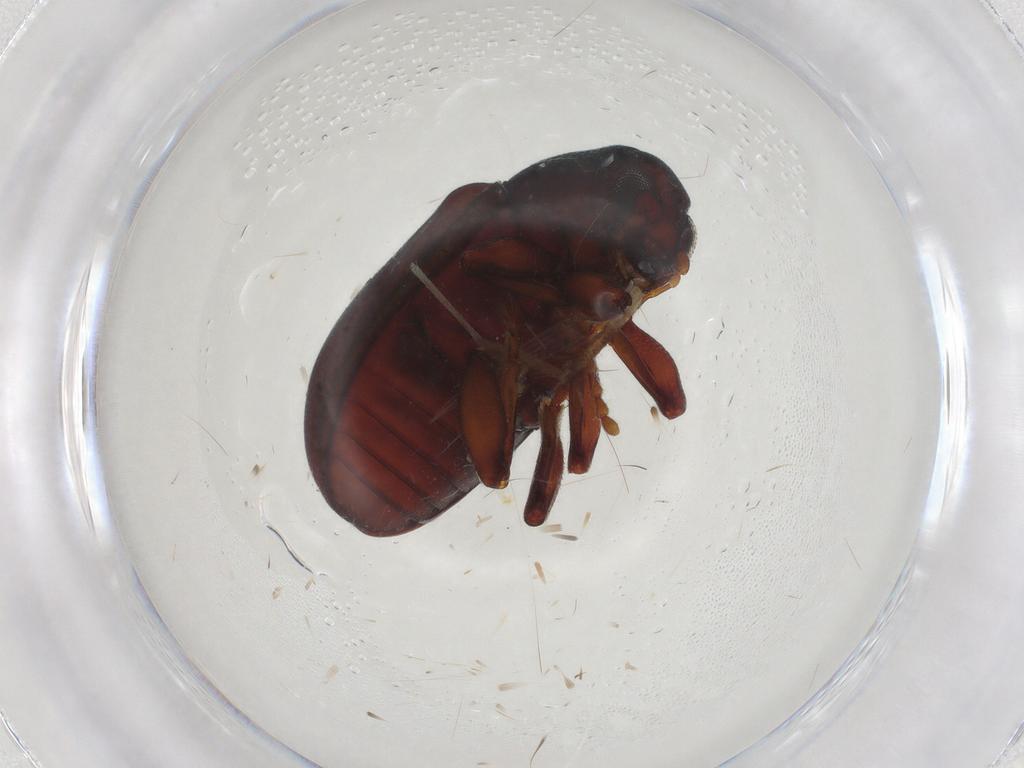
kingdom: Animalia
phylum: Arthropoda
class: Insecta
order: Coleoptera
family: Chrysomelidae
